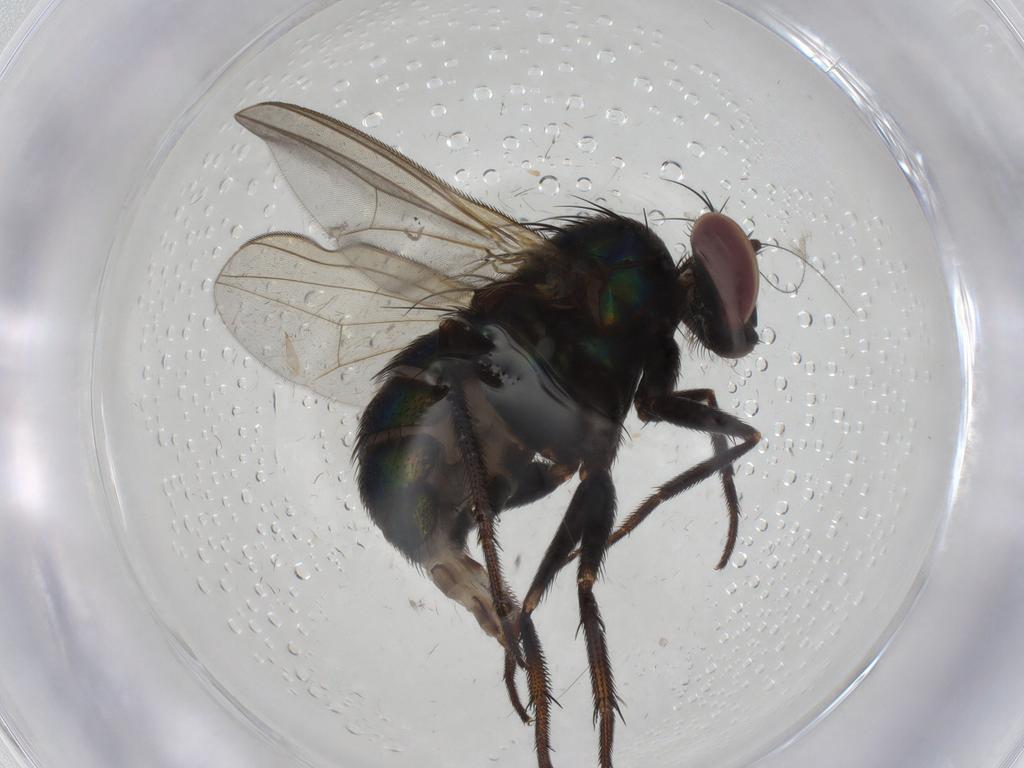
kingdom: Animalia
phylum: Arthropoda
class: Insecta
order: Diptera
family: Dolichopodidae
